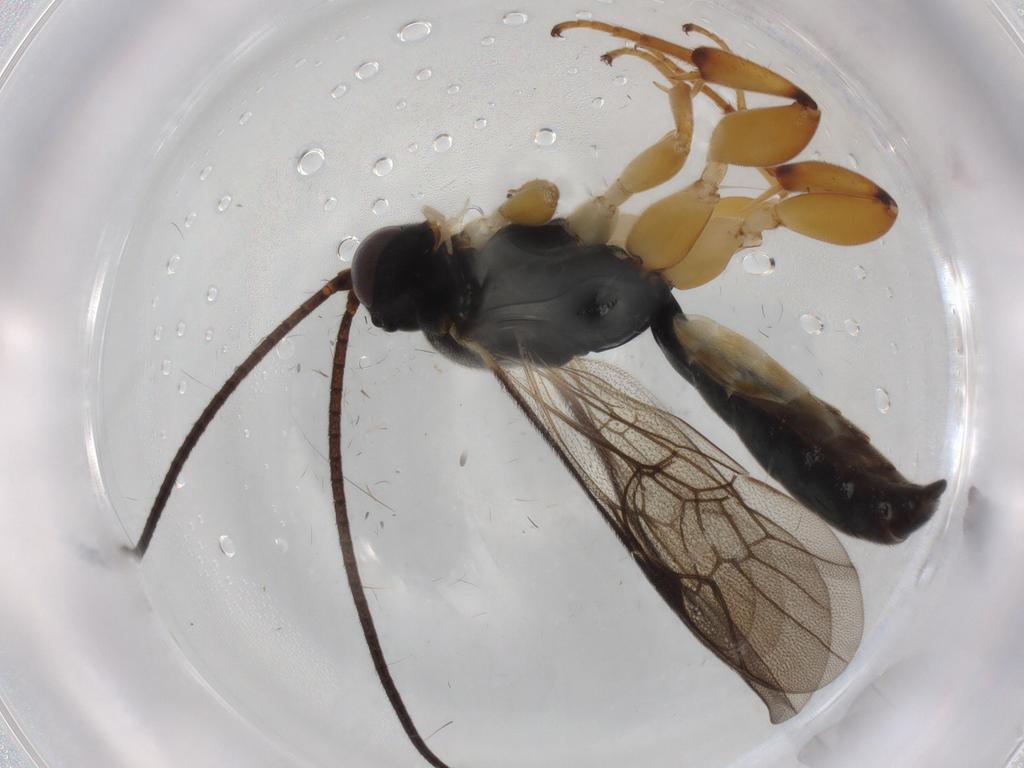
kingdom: Animalia
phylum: Arthropoda
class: Insecta
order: Hymenoptera
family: Ichneumonidae
